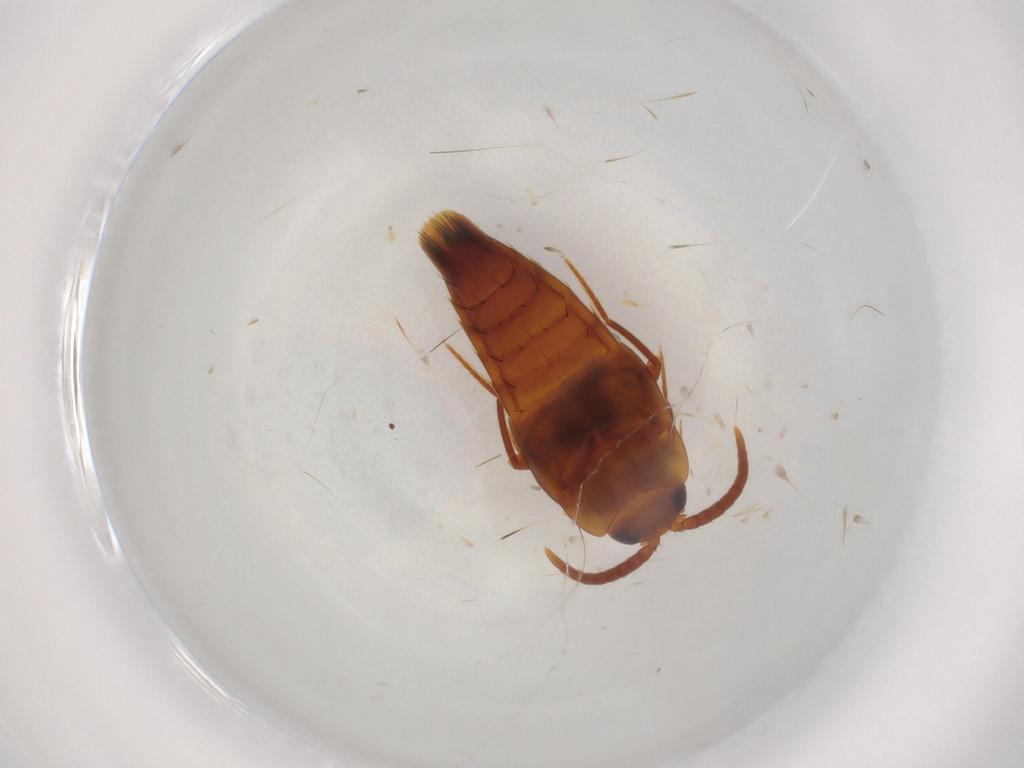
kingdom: Animalia
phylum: Arthropoda
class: Insecta
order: Coleoptera
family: Staphylinidae
